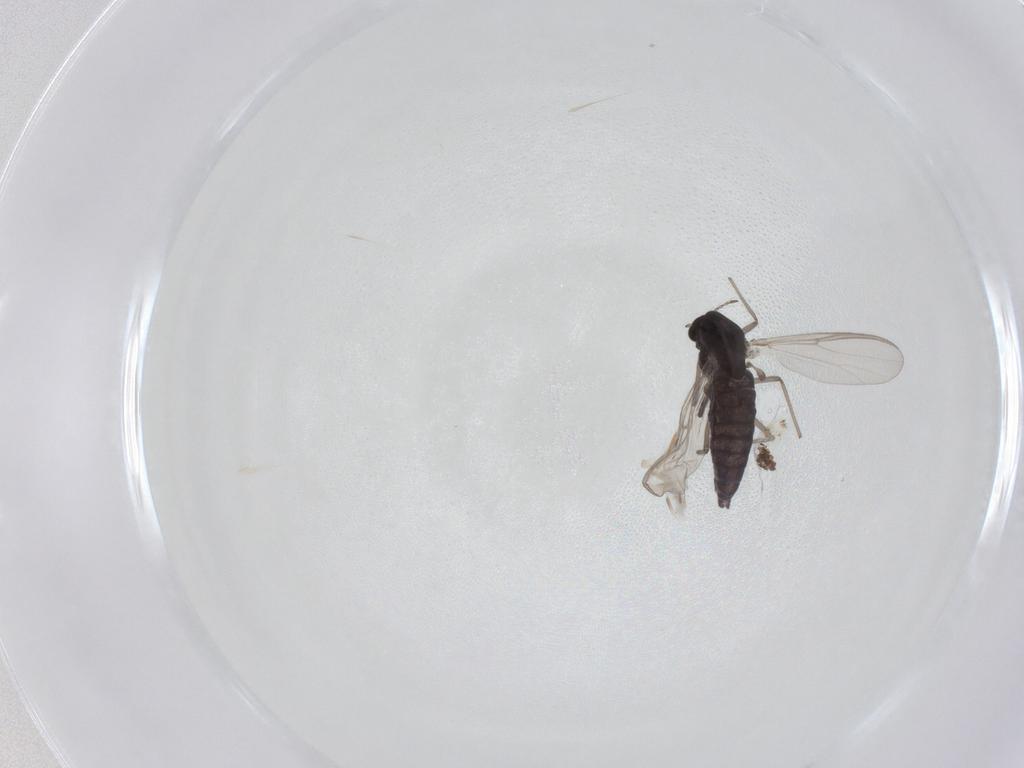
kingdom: Animalia
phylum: Arthropoda
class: Insecta
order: Diptera
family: Chironomidae
